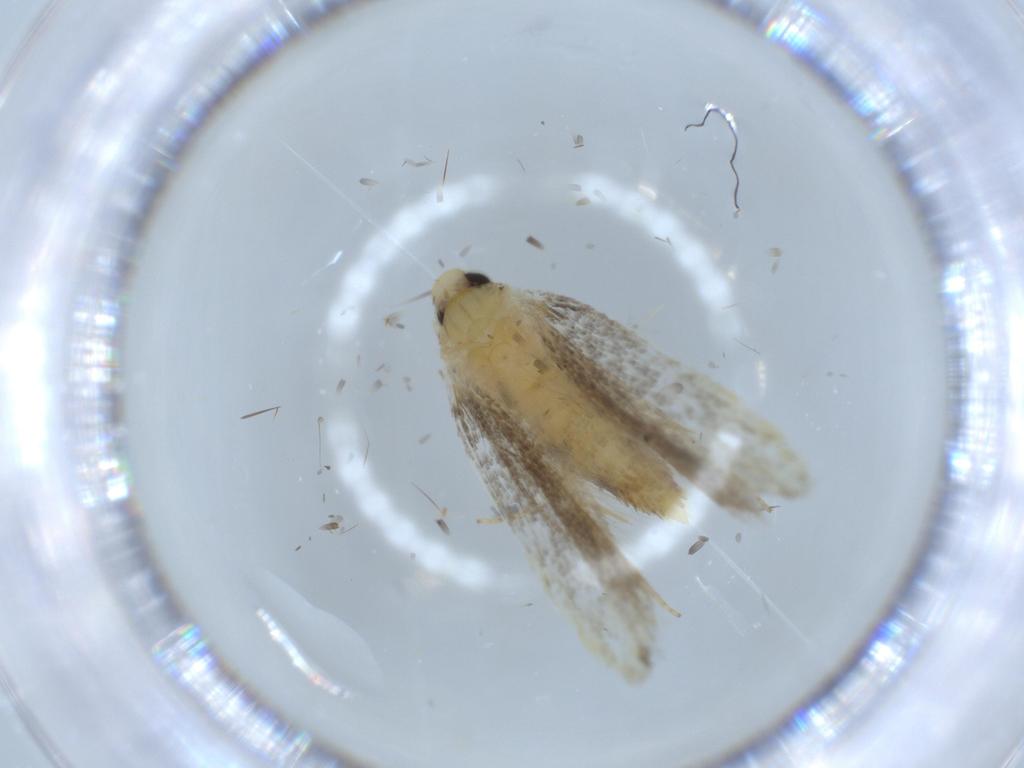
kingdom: Animalia
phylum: Arthropoda
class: Insecta
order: Lepidoptera
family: Autostichidae
